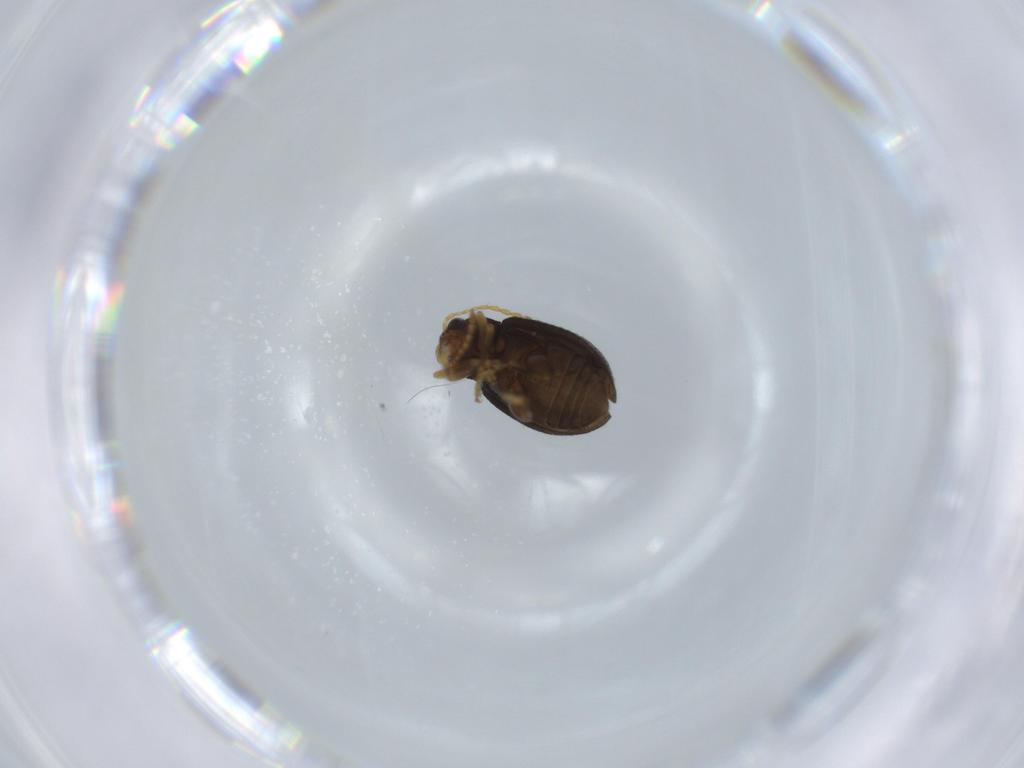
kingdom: Animalia
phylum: Arthropoda
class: Insecta
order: Coleoptera
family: Chrysomelidae
